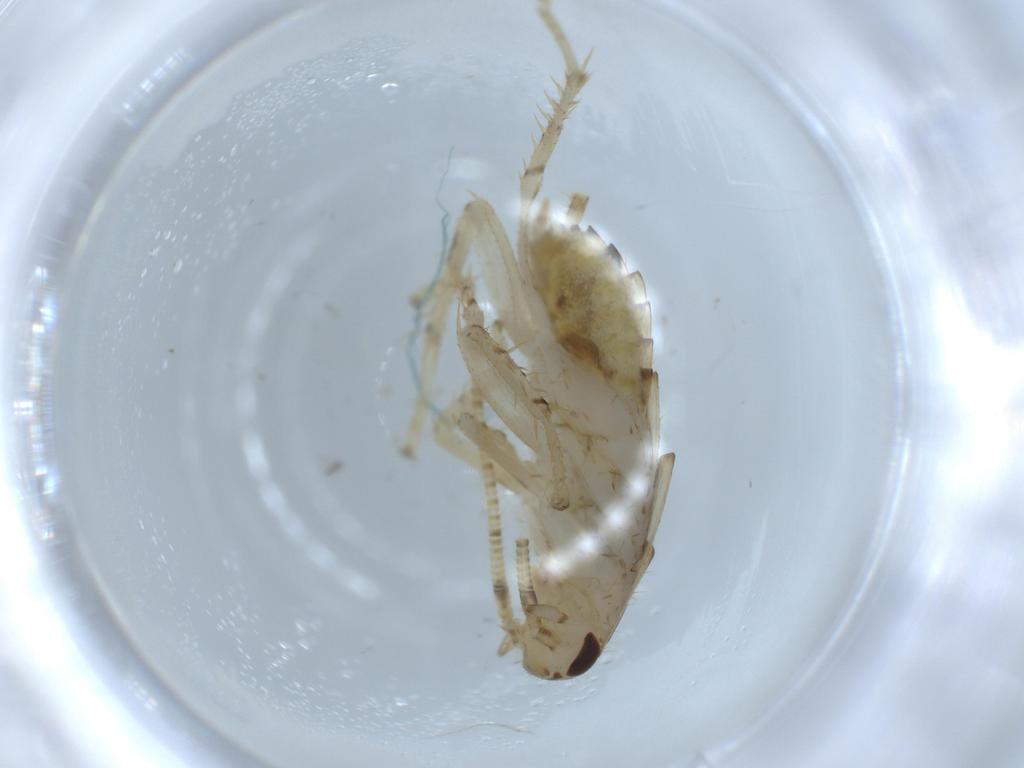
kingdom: Animalia
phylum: Arthropoda
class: Insecta
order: Blattodea
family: Ectobiidae
